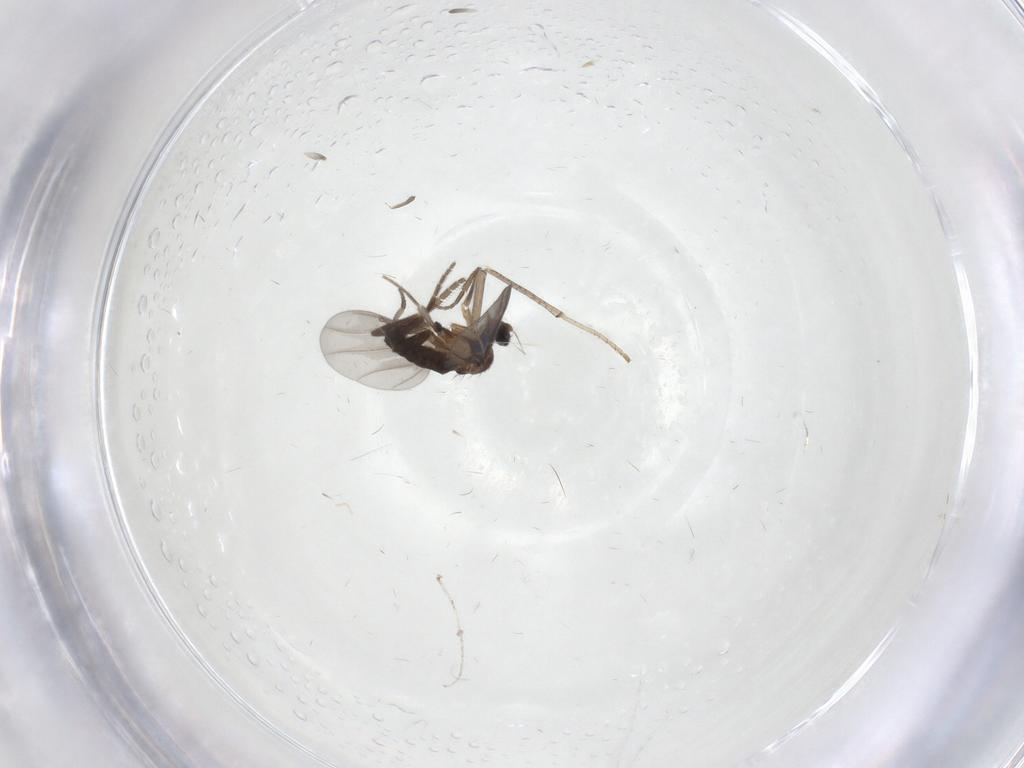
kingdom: Animalia
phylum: Arthropoda
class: Insecta
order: Diptera
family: Phoridae
